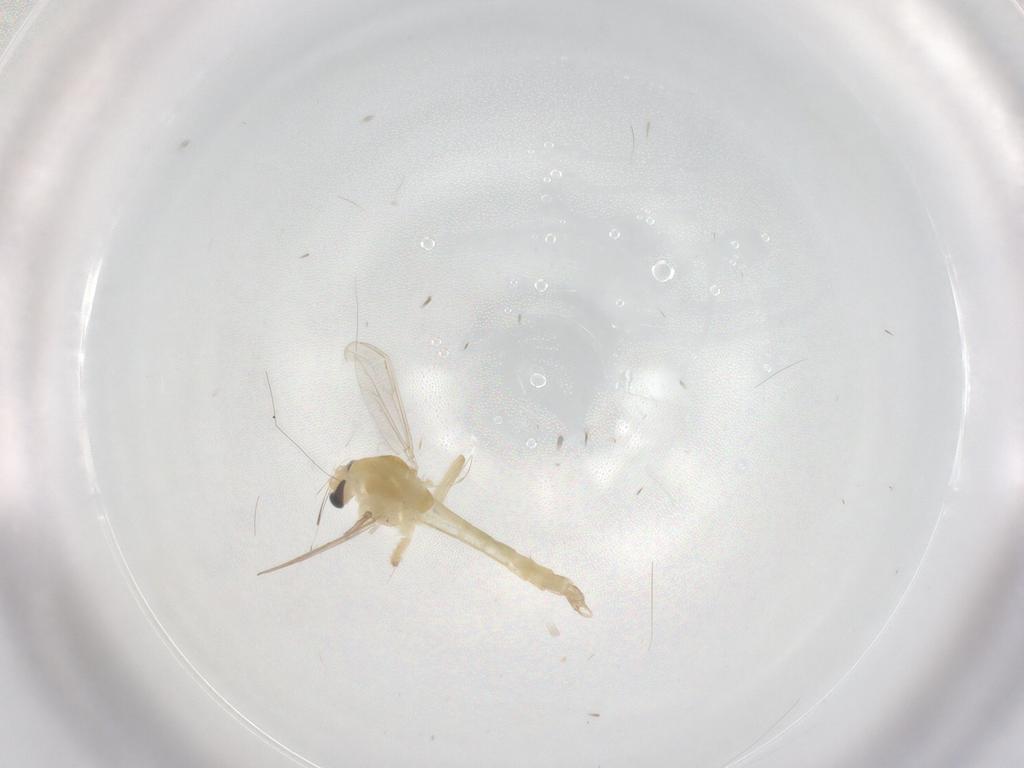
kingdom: Animalia
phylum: Arthropoda
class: Insecta
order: Diptera
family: Chironomidae
